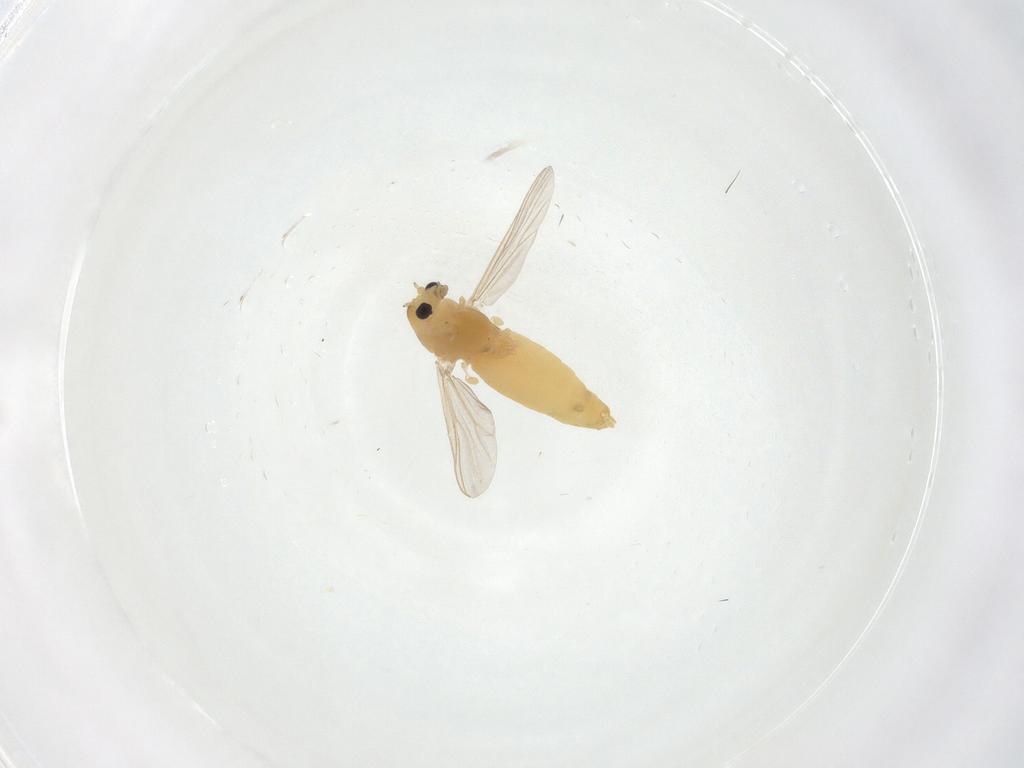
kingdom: Animalia
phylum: Arthropoda
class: Insecta
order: Diptera
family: Chironomidae
